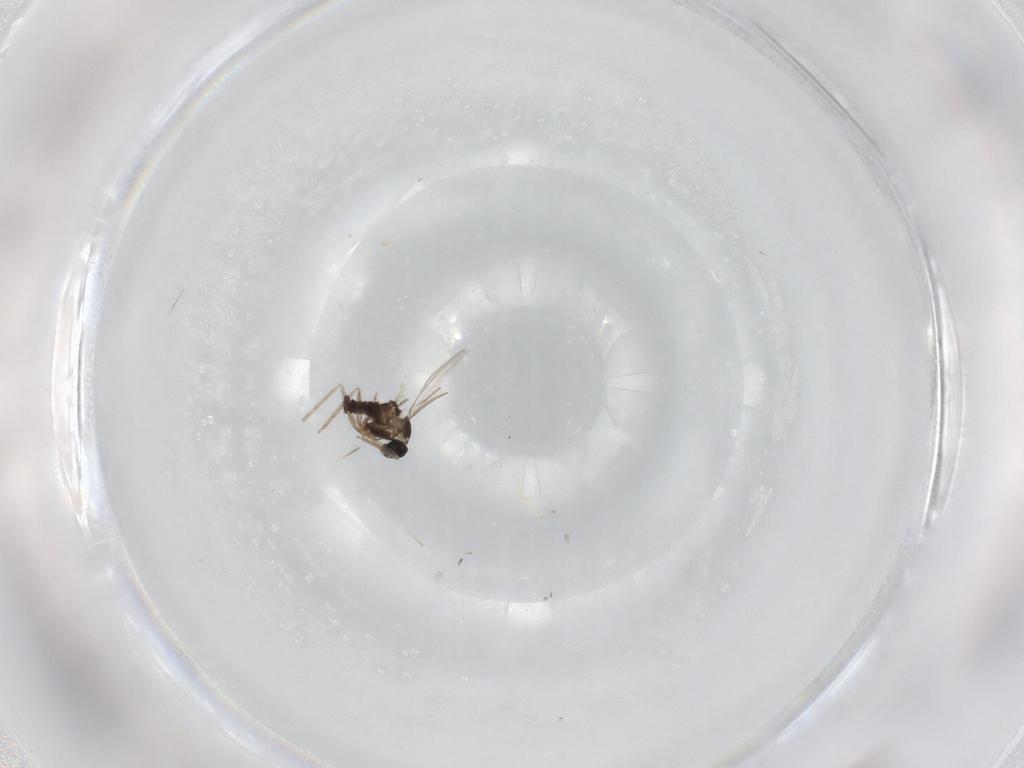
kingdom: Animalia
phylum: Arthropoda
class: Insecta
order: Diptera
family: Cecidomyiidae
